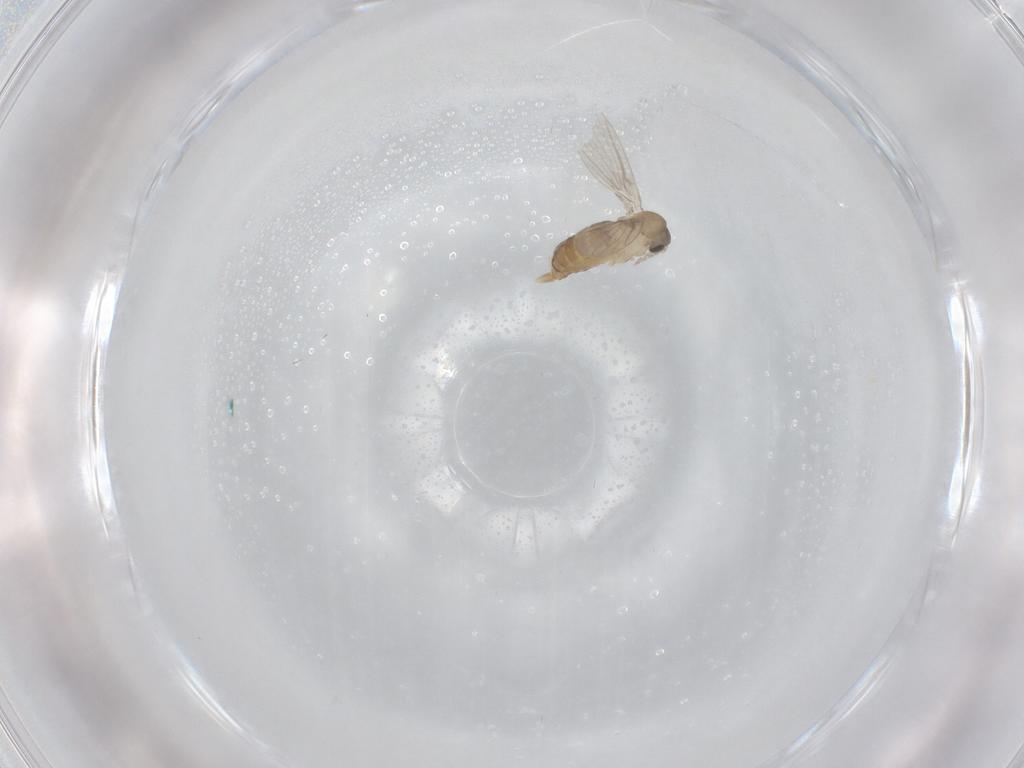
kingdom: Animalia
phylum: Arthropoda
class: Insecta
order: Diptera
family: Psychodidae
